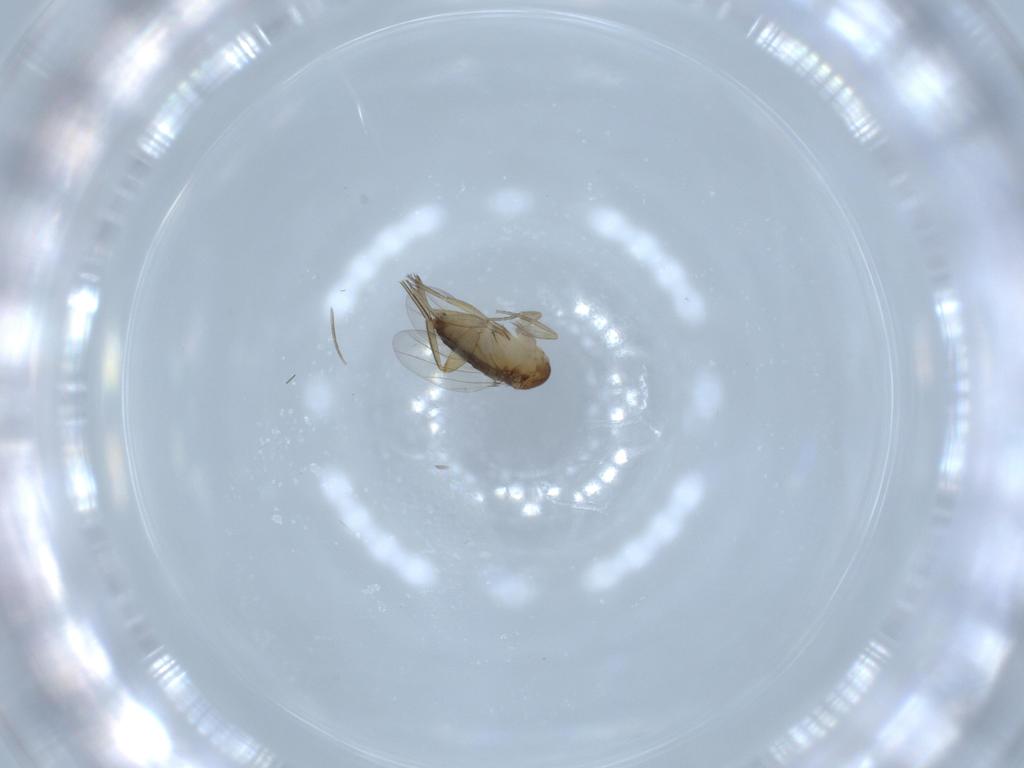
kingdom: Animalia
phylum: Arthropoda
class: Insecta
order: Diptera
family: Phoridae
